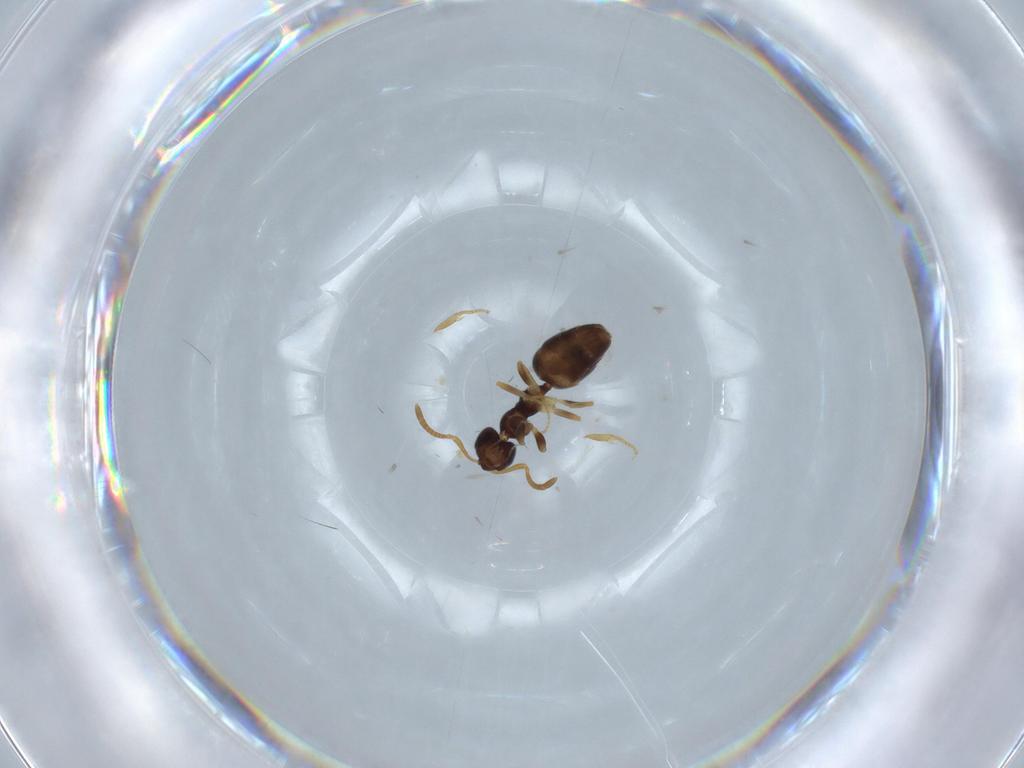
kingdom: Animalia
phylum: Arthropoda
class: Insecta
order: Hymenoptera
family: Formicidae
